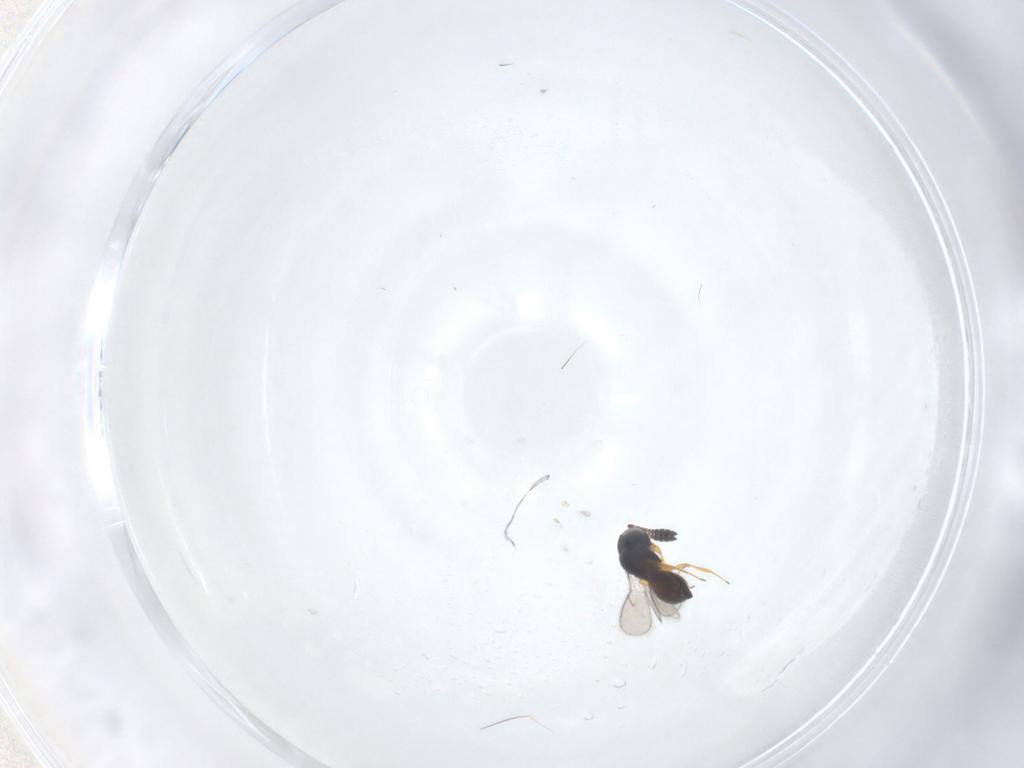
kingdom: Animalia
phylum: Arthropoda
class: Insecta
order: Hymenoptera
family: Scelionidae
